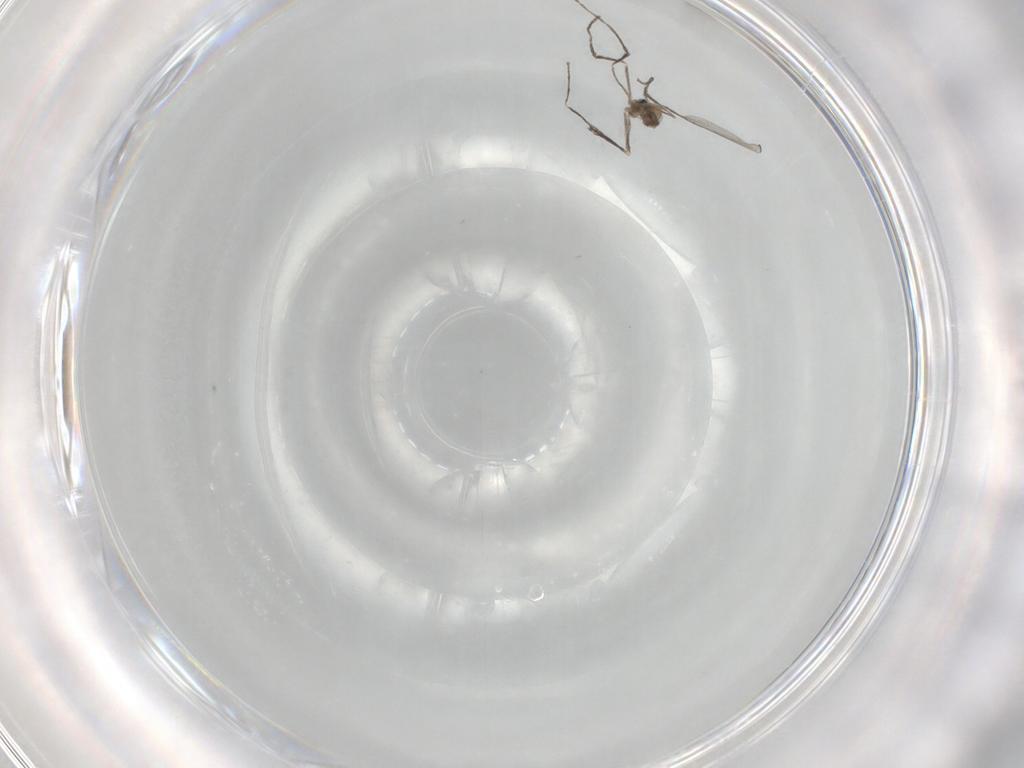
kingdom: Animalia
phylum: Arthropoda
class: Insecta
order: Diptera
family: Cecidomyiidae
